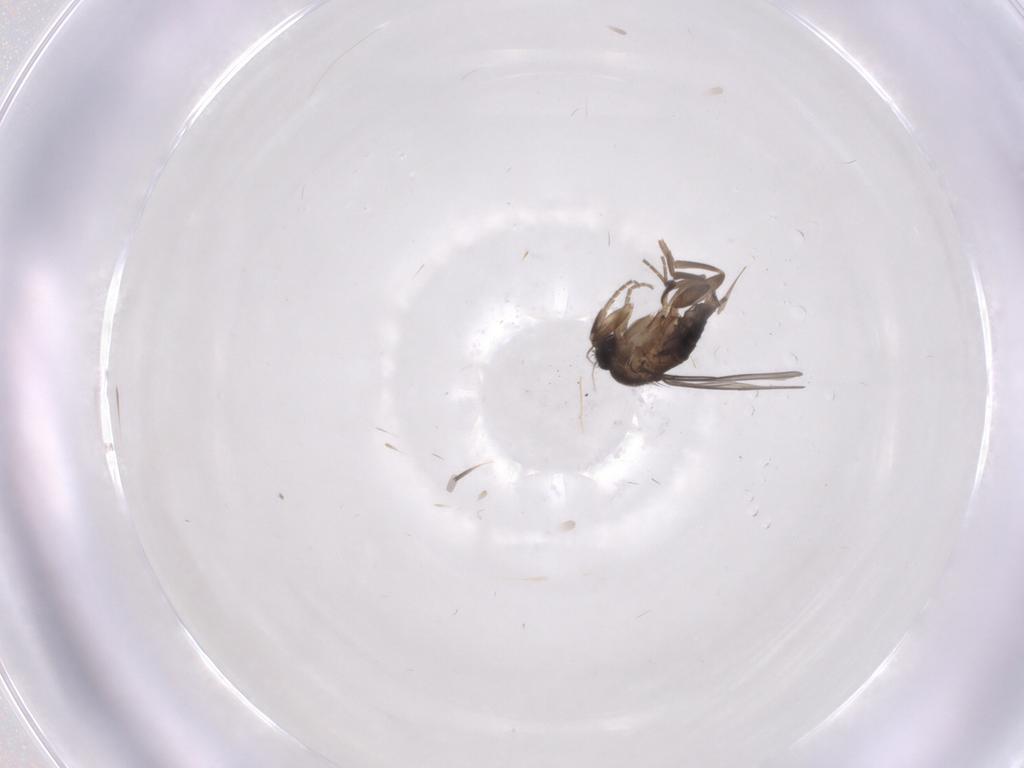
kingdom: Animalia
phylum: Arthropoda
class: Insecta
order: Diptera
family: Phoridae
